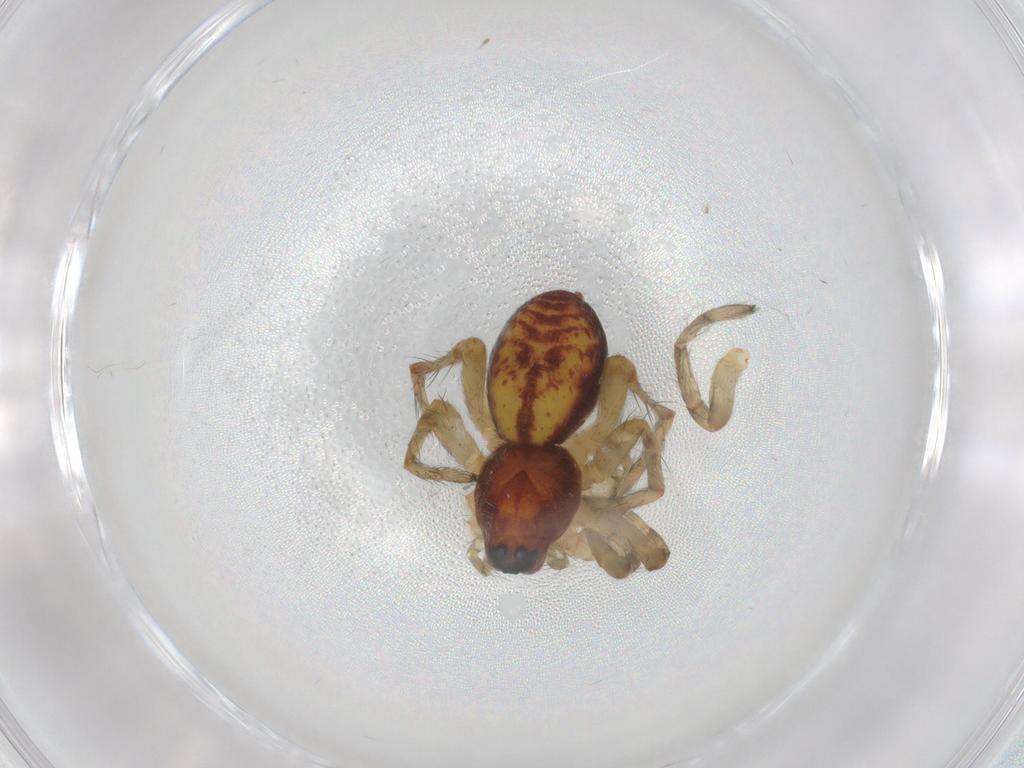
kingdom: Animalia
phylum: Arthropoda
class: Arachnida
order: Araneae
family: Anyphaenidae
